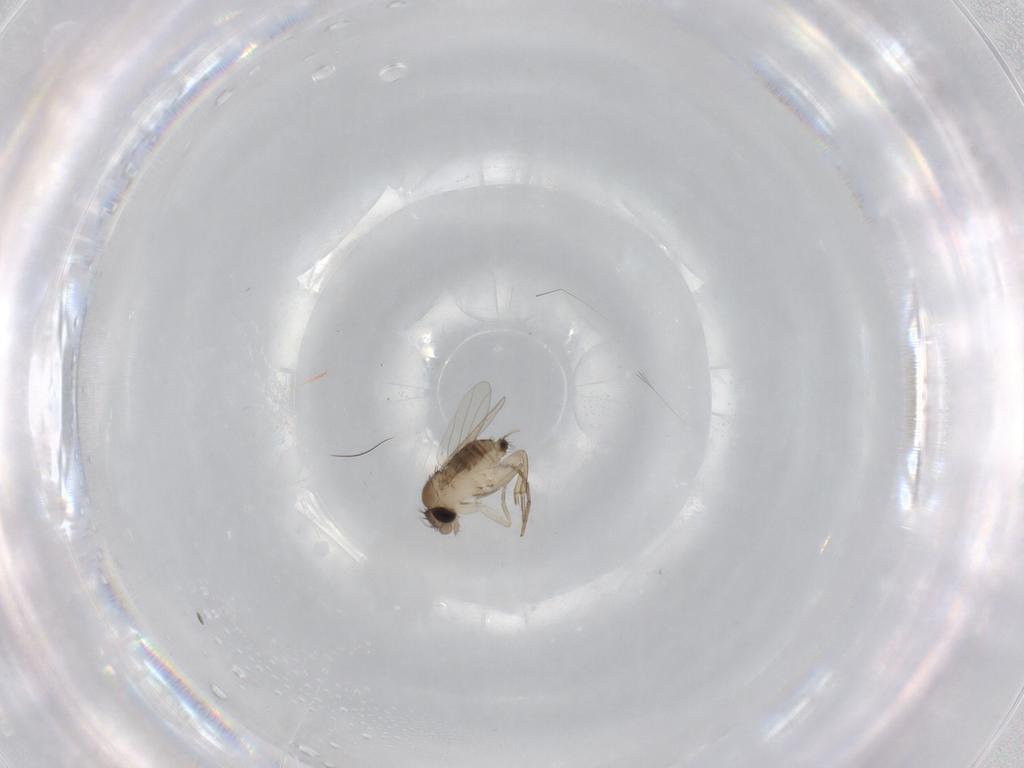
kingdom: Animalia
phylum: Arthropoda
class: Insecta
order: Diptera
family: Phoridae
